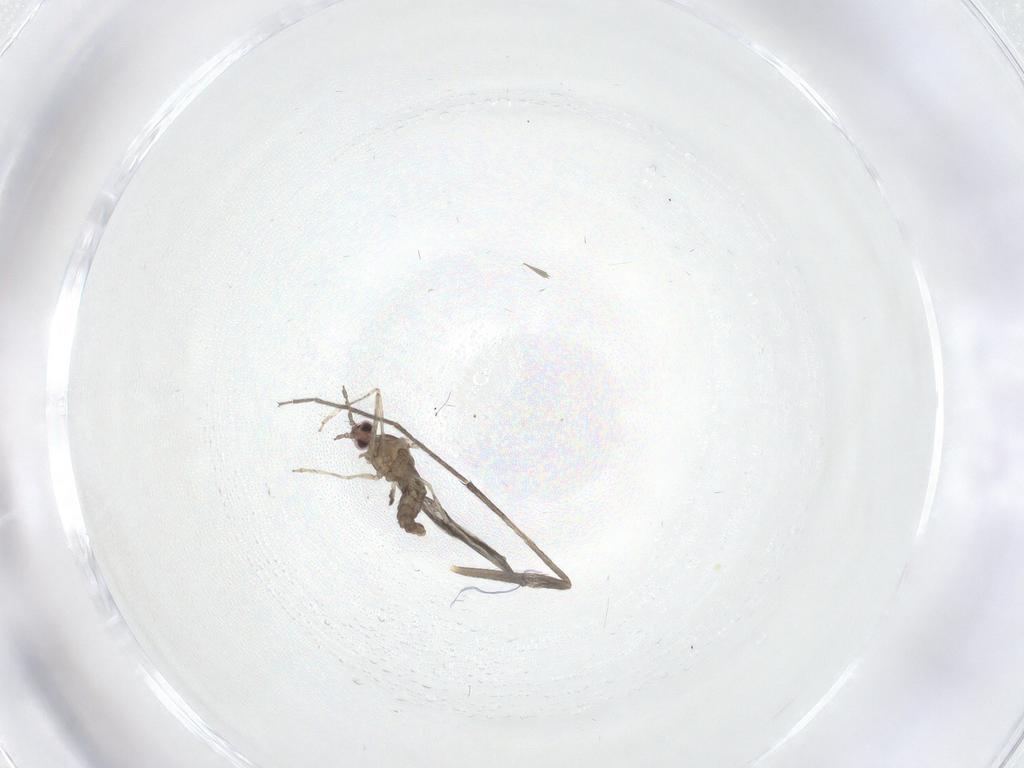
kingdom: Animalia
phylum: Arthropoda
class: Insecta
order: Diptera
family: Cecidomyiidae
